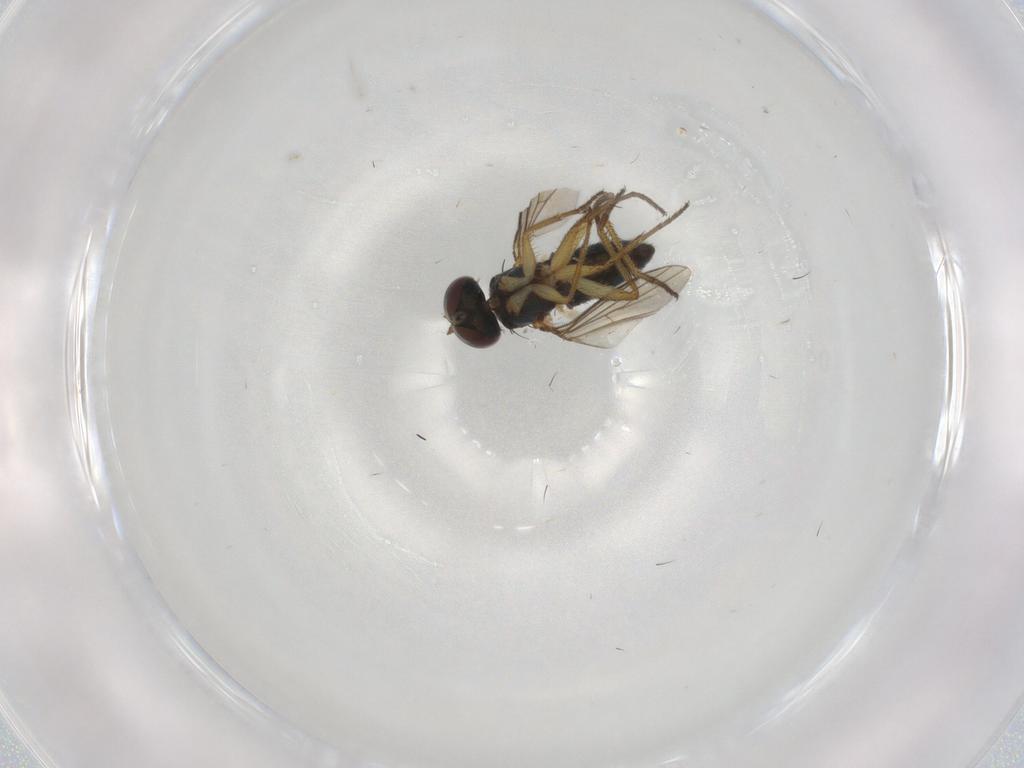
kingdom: Animalia
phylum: Arthropoda
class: Insecta
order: Diptera
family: Dolichopodidae
